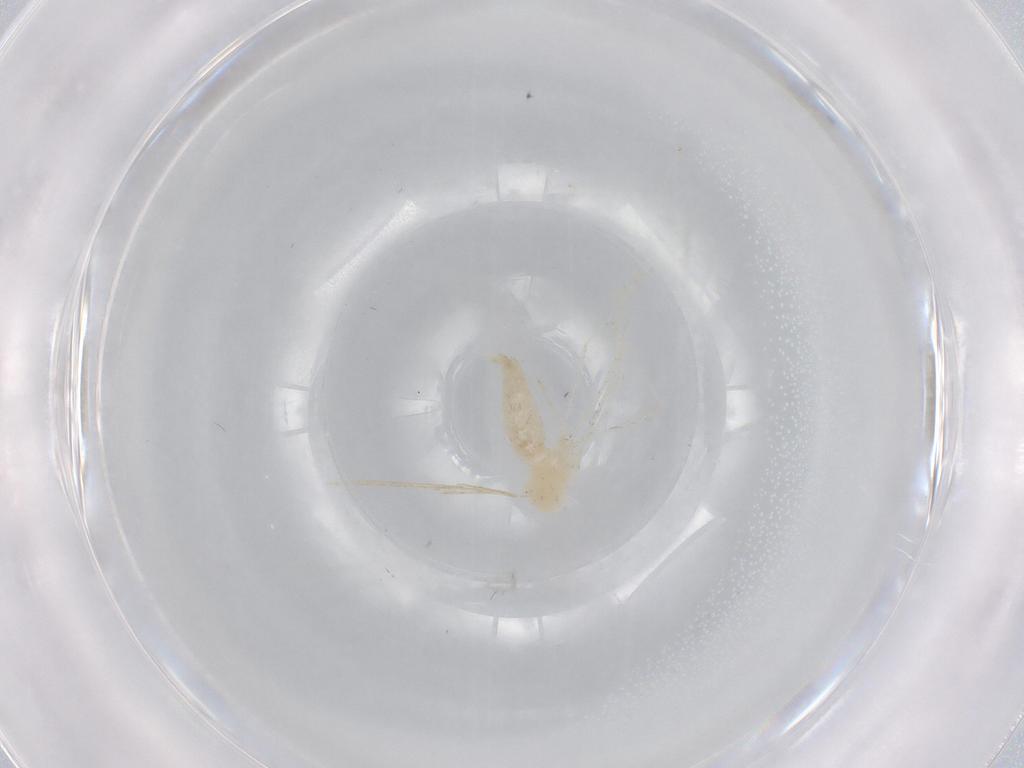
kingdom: Animalia
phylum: Arthropoda
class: Insecta
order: Diptera
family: Cecidomyiidae
